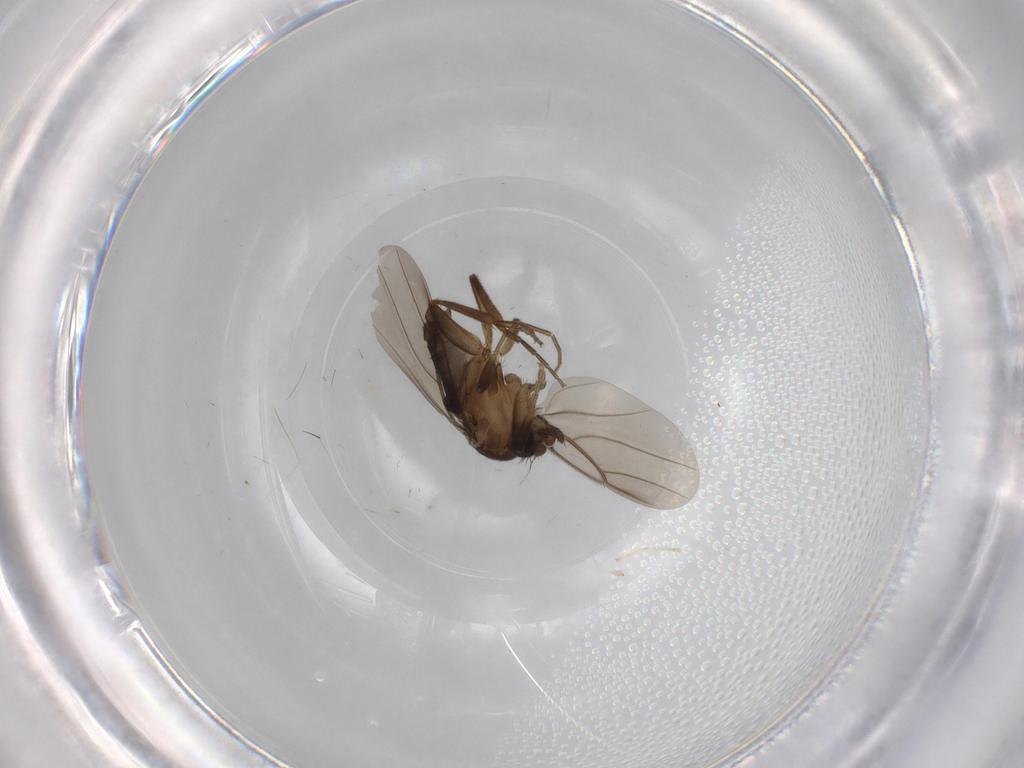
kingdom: Animalia
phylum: Arthropoda
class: Insecta
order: Diptera
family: Phoridae
